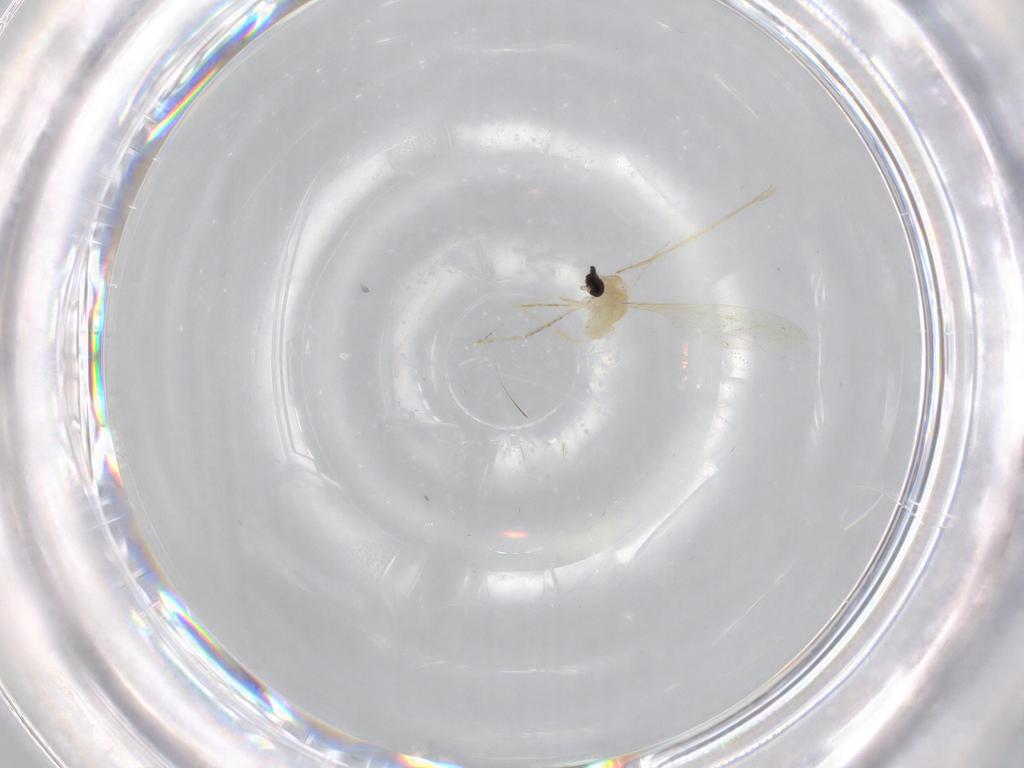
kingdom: Animalia
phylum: Arthropoda
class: Insecta
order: Diptera
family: Cecidomyiidae
